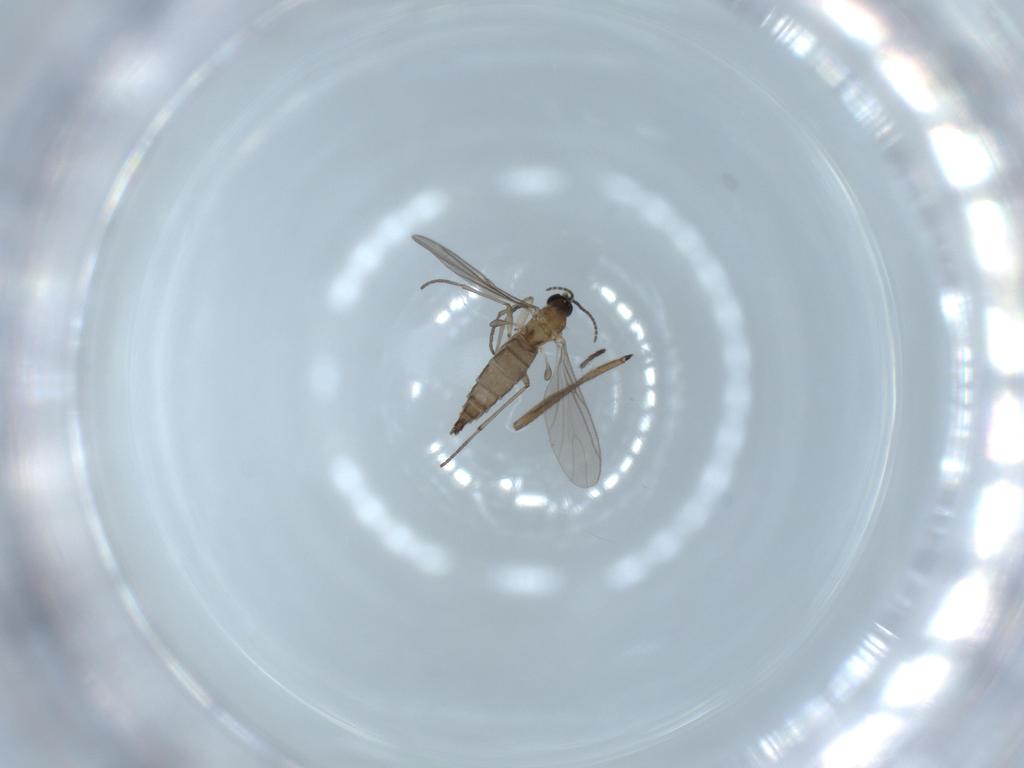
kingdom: Animalia
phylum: Arthropoda
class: Insecta
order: Diptera
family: Sciaridae
